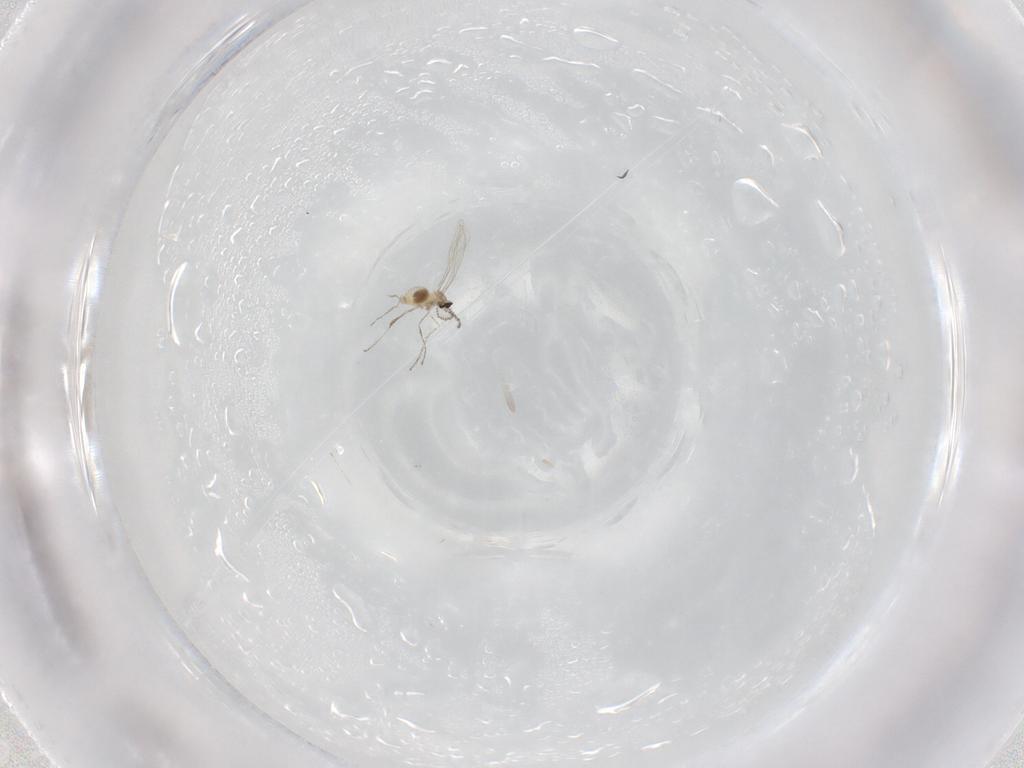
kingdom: Animalia
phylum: Arthropoda
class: Insecta
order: Diptera
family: Cecidomyiidae
